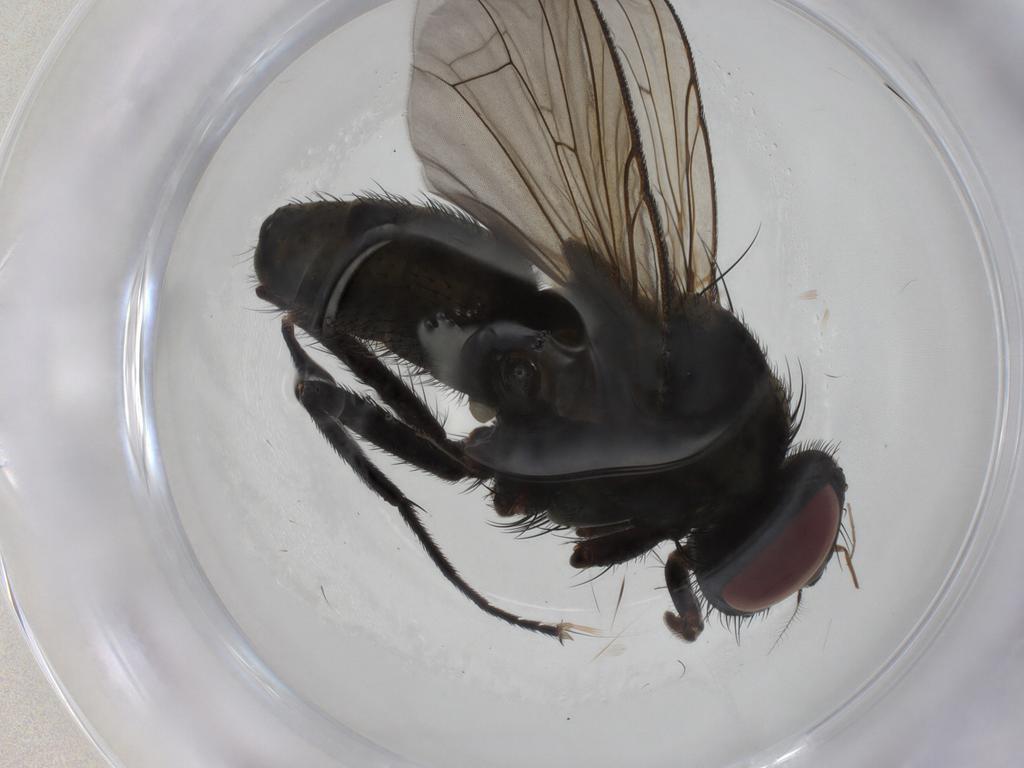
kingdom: Animalia
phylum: Arthropoda
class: Insecta
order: Diptera
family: Muscidae
